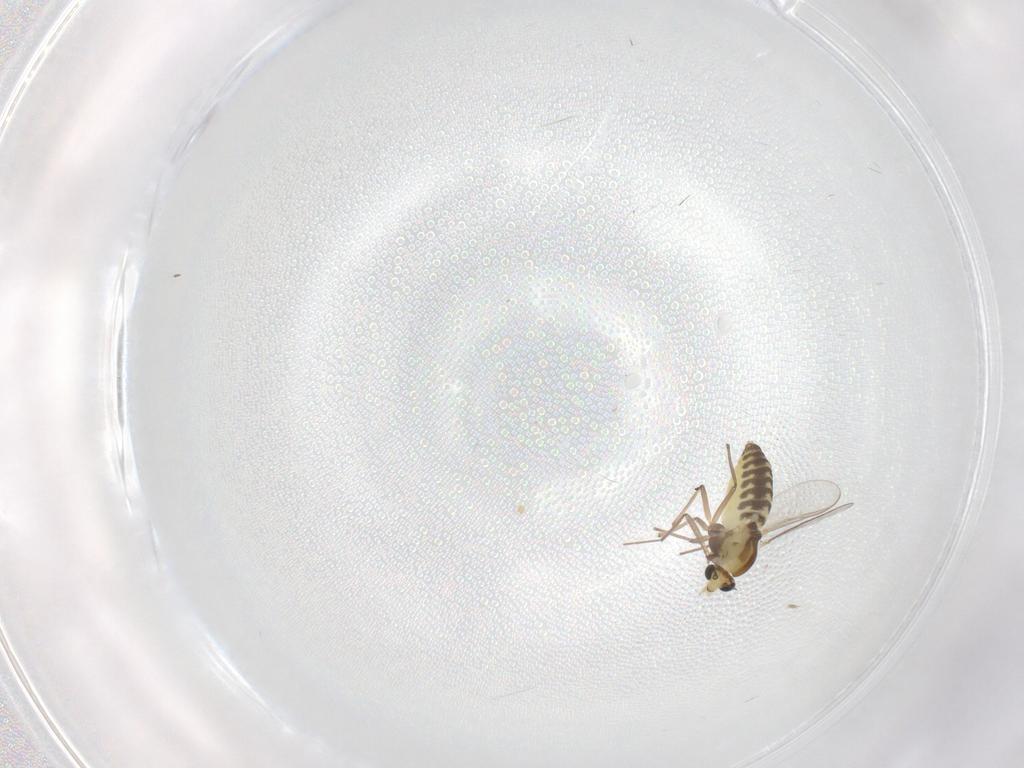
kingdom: Animalia
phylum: Arthropoda
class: Insecta
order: Diptera
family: Chironomidae
